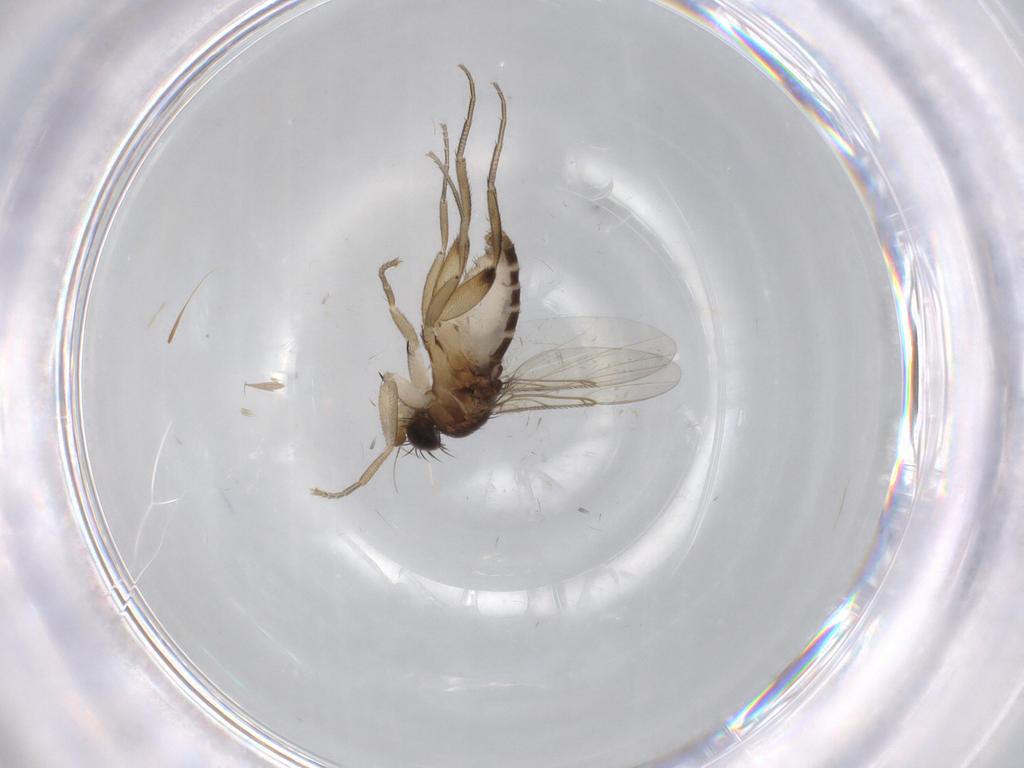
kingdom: Animalia
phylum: Arthropoda
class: Insecta
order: Diptera
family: Phoridae
